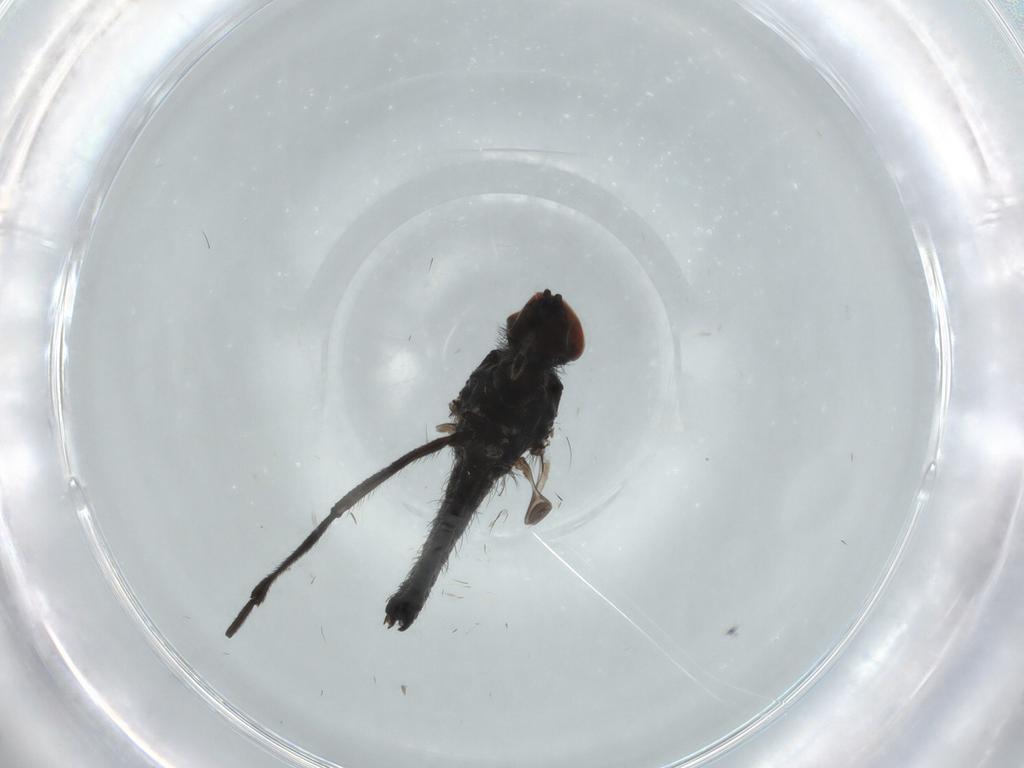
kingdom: Animalia
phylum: Arthropoda
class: Insecta
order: Diptera
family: Hybotidae
